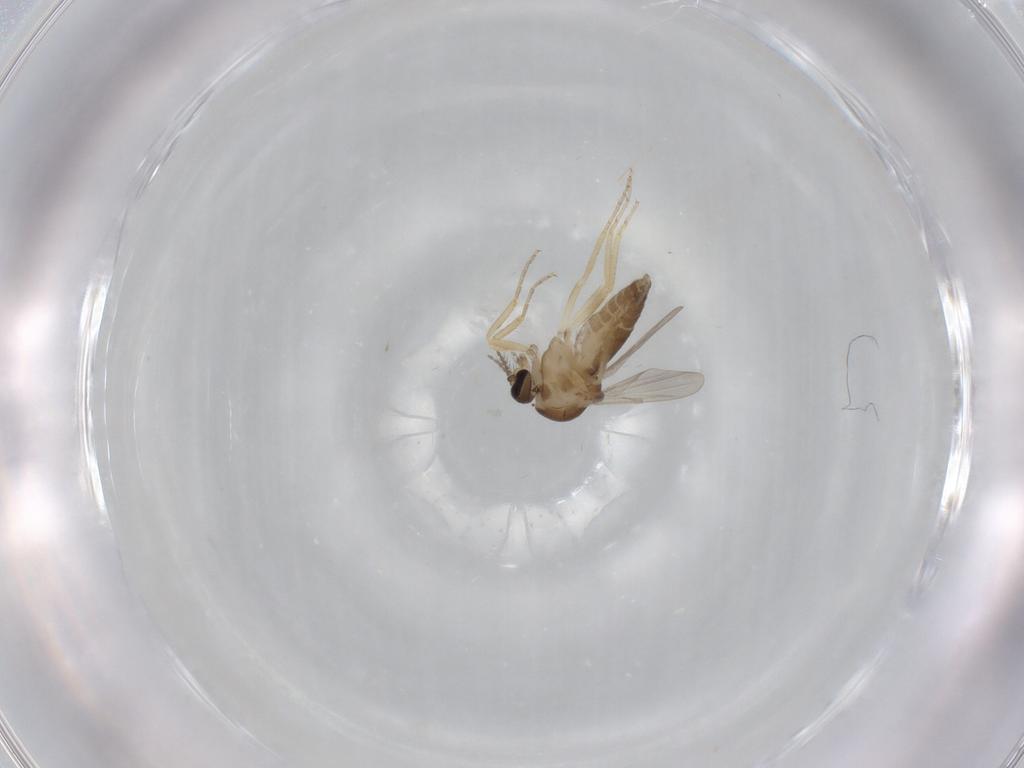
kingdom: Animalia
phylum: Arthropoda
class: Insecta
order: Diptera
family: Ceratopogonidae
